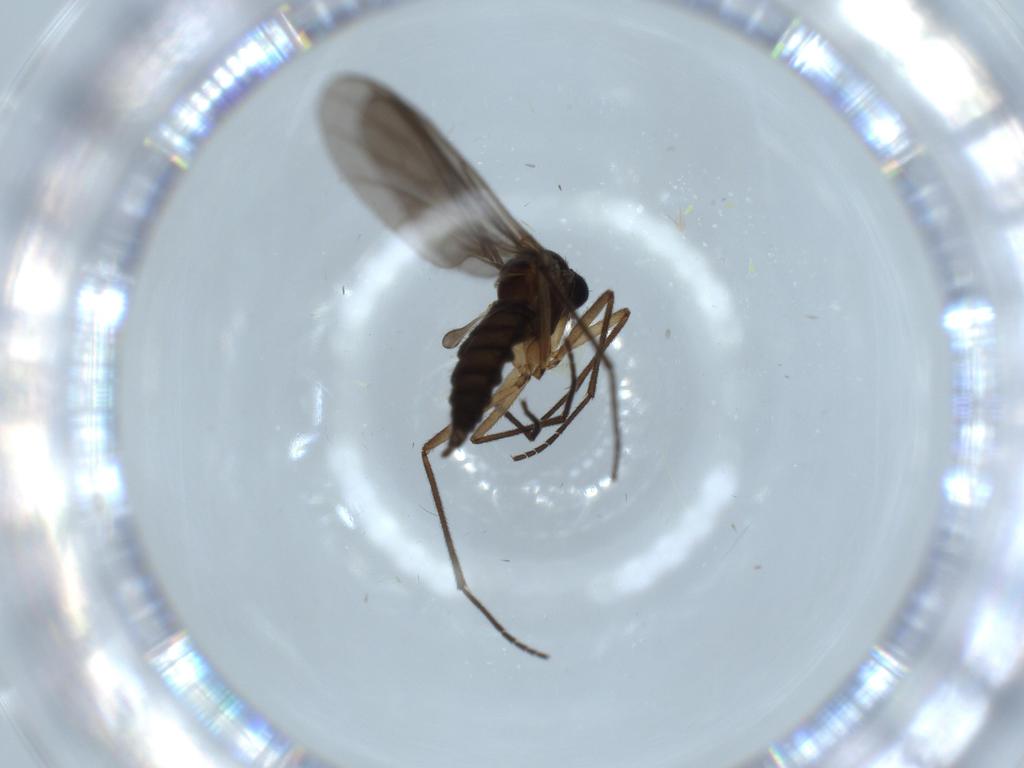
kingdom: Animalia
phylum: Arthropoda
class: Insecta
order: Diptera
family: Sciaridae
